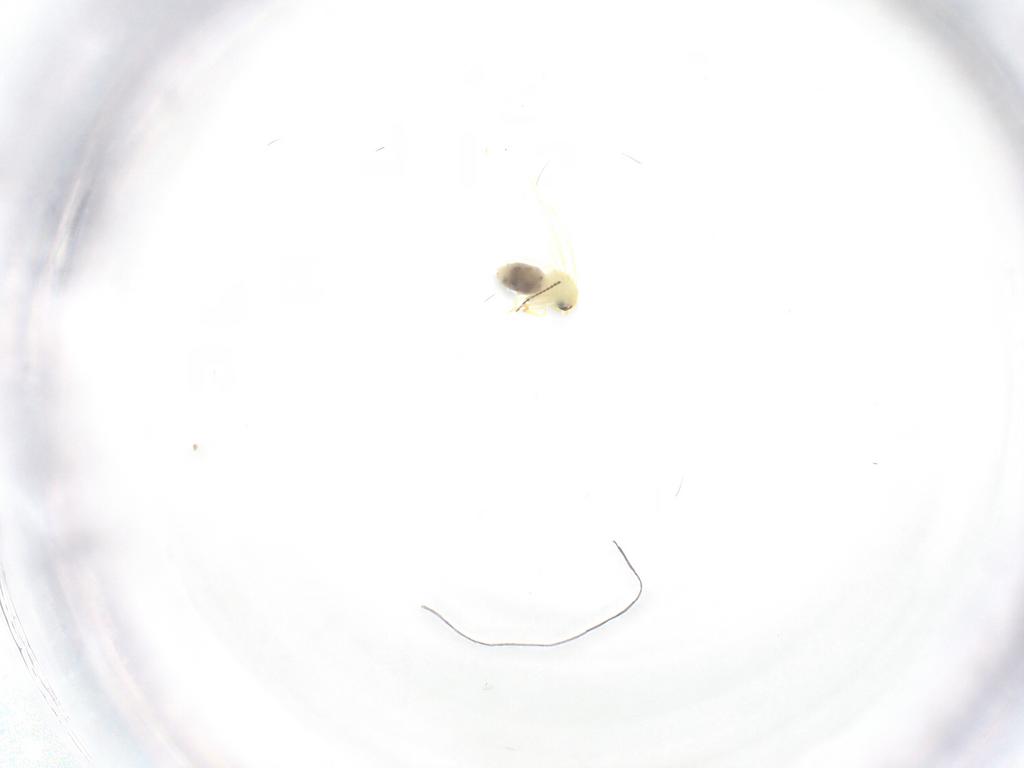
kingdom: Animalia
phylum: Arthropoda
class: Insecta
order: Diptera
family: Ceratopogonidae
